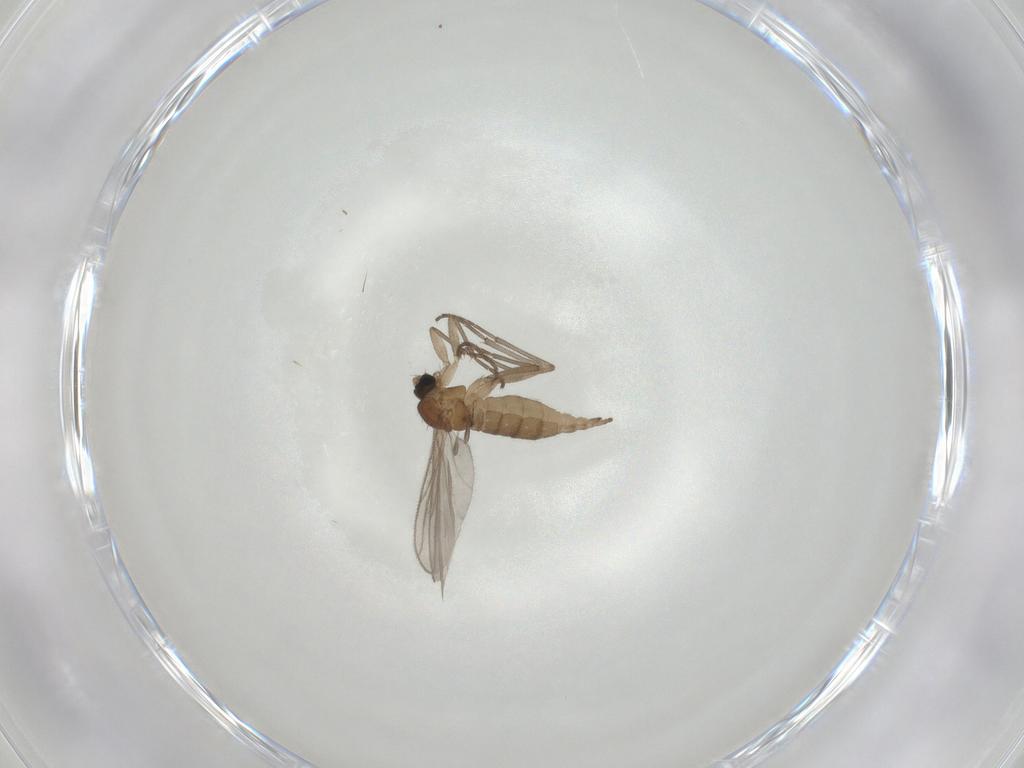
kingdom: Animalia
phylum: Arthropoda
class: Insecta
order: Diptera
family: Sciaridae
